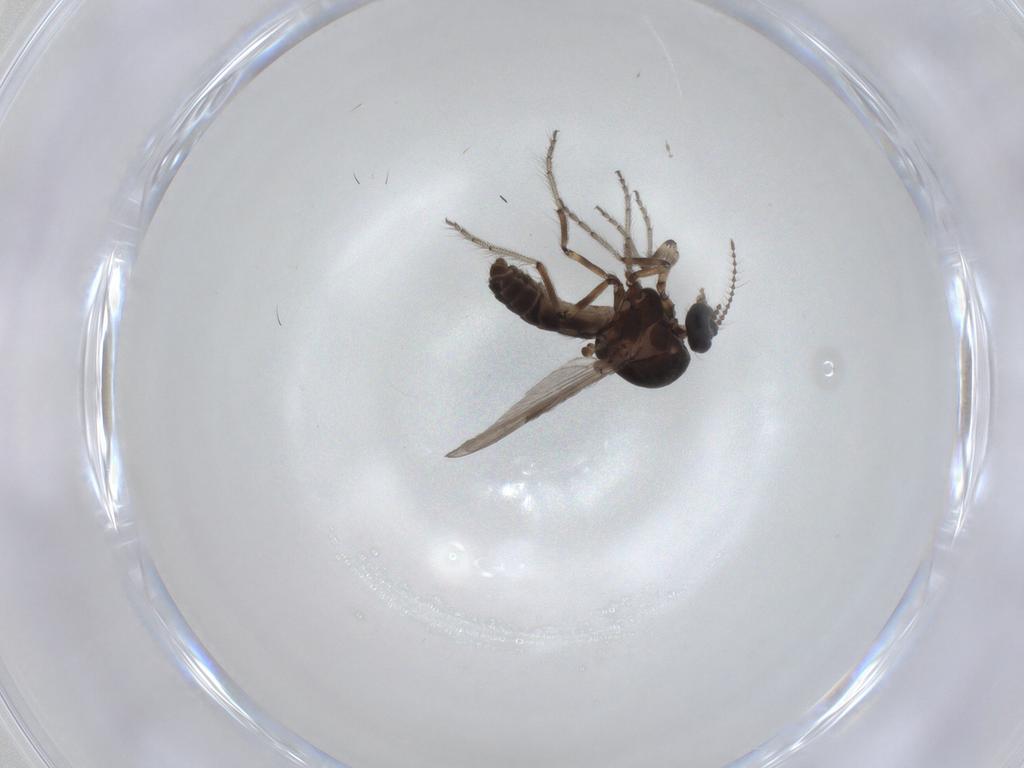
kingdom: Animalia
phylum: Arthropoda
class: Insecta
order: Diptera
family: Ceratopogonidae
